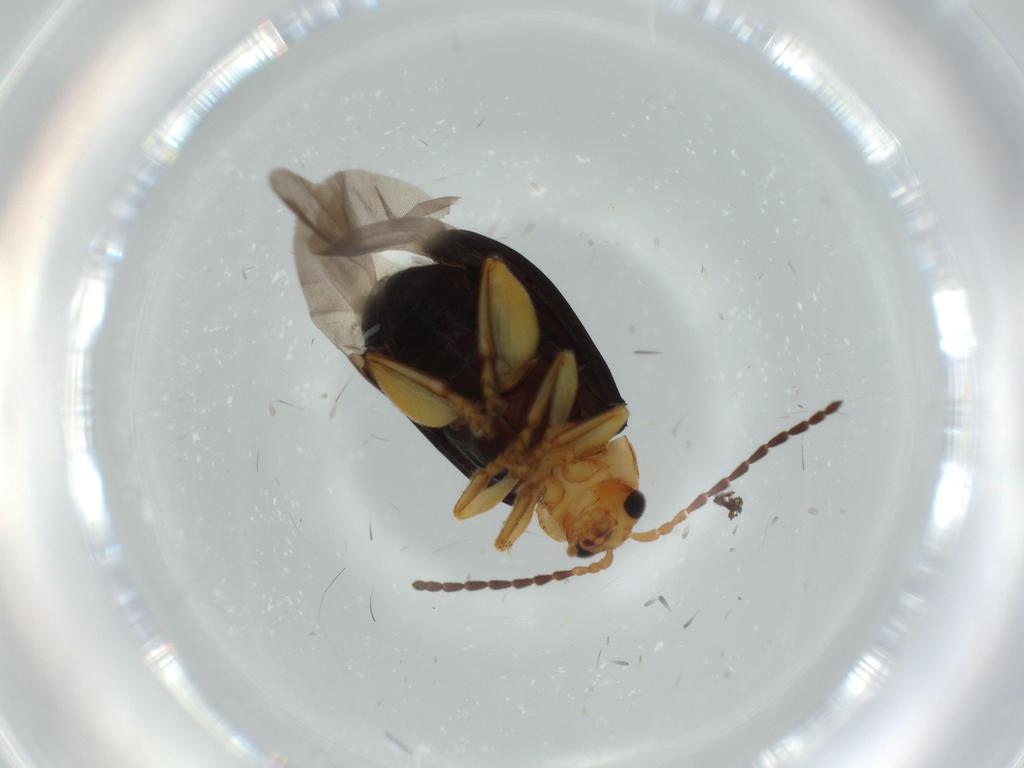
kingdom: Animalia
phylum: Arthropoda
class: Insecta
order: Coleoptera
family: Chrysomelidae
